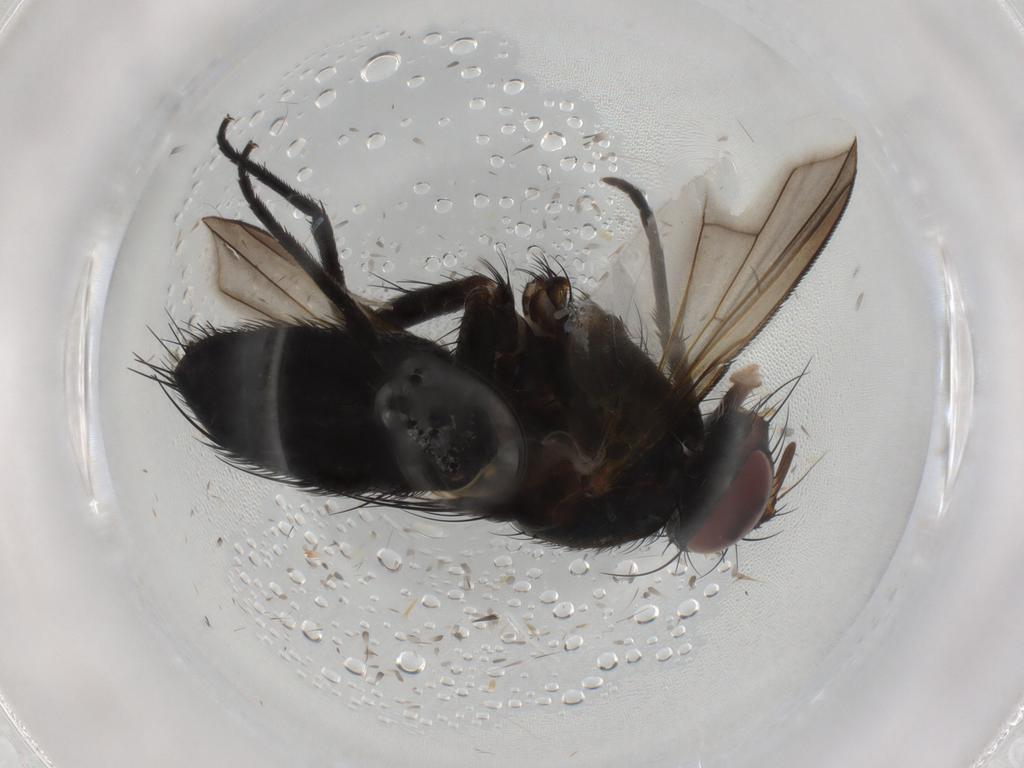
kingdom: Animalia
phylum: Arthropoda
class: Insecta
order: Diptera
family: Tachinidae
